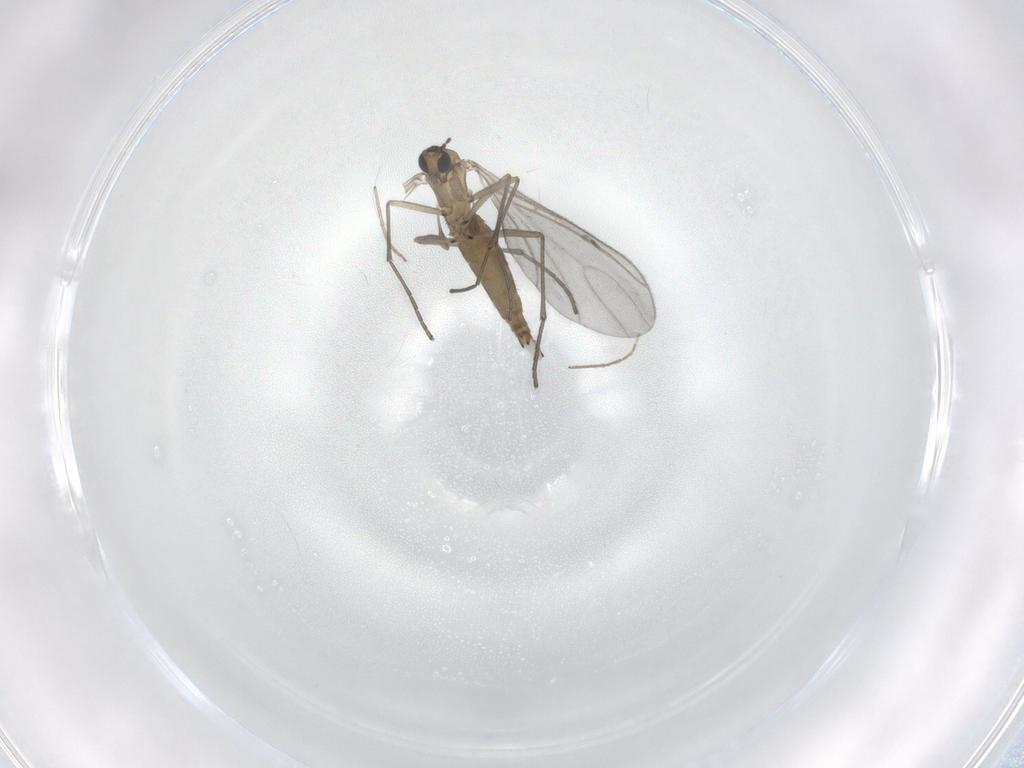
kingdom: Animalia
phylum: Arthropoda
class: Insecta
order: Diptera
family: Sciaridae
